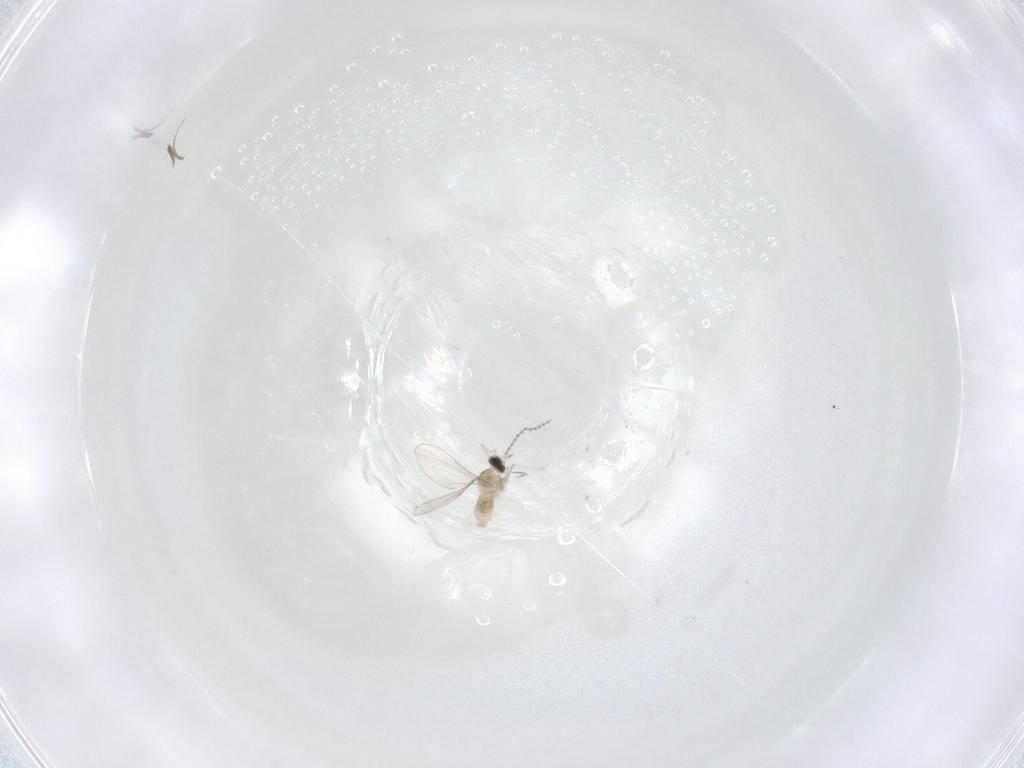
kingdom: Animalia
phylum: Arthropoda
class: Insecta
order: Diptera
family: Cecidomyiidae
